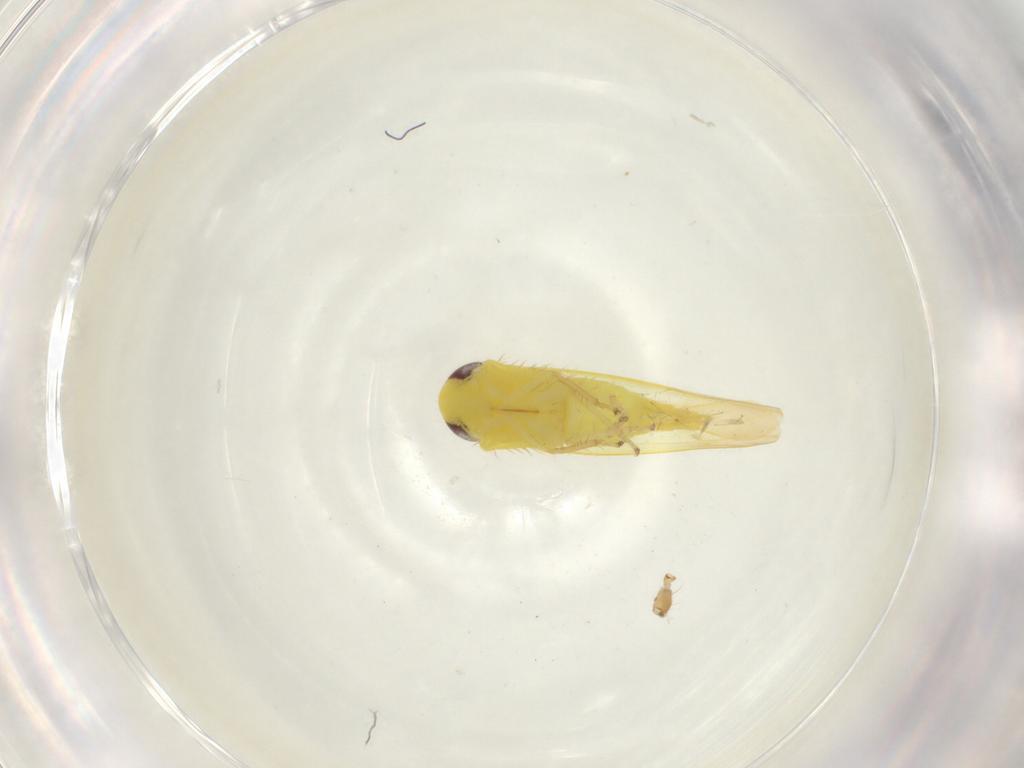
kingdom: Animalia
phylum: Arthropoda
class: Insecta
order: Hemiptera
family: Cicadellidae
